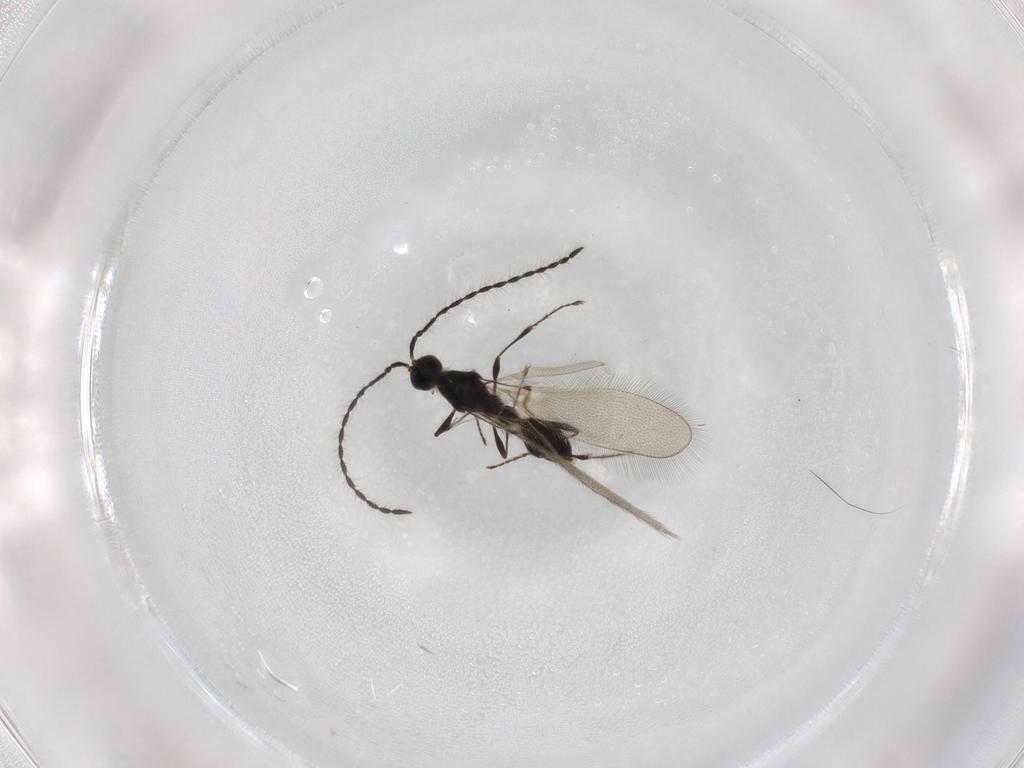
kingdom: Animalia
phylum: Arthropoda
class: Insecta
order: Hymenoptera
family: Diapriidae
